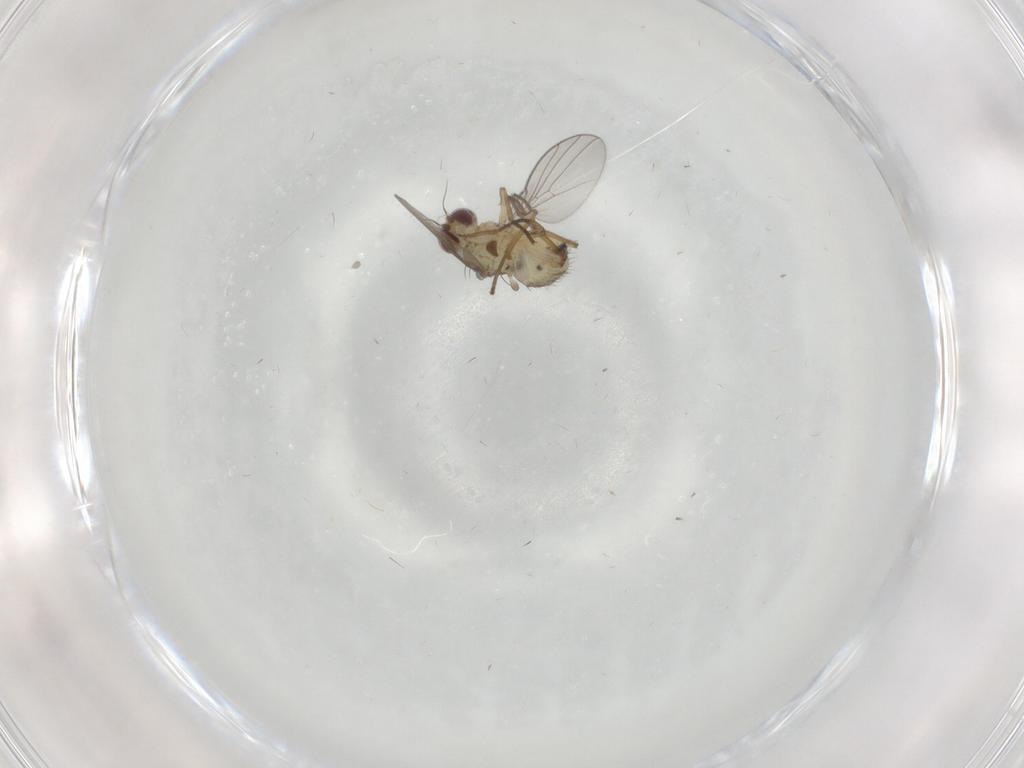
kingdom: Animalia
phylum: Arthropoda
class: Insecta
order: Diptera
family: Agromyzidae
